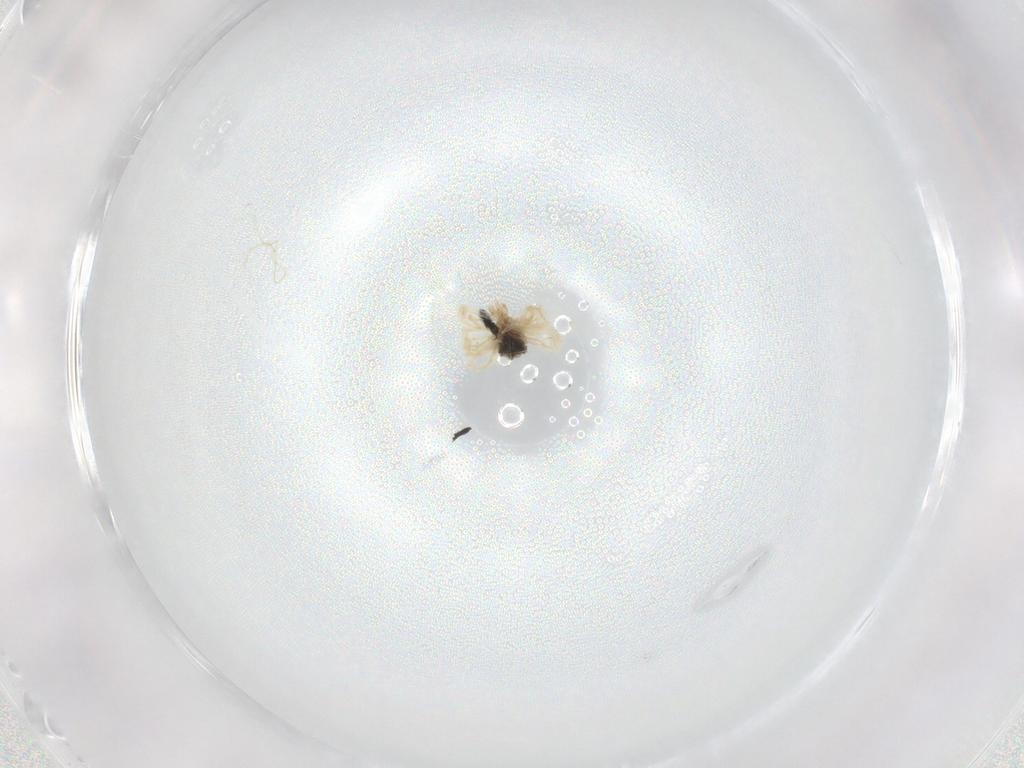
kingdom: Animalia
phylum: Arthropoda
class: Arachnida
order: Trombidiformes
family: Anystidae
